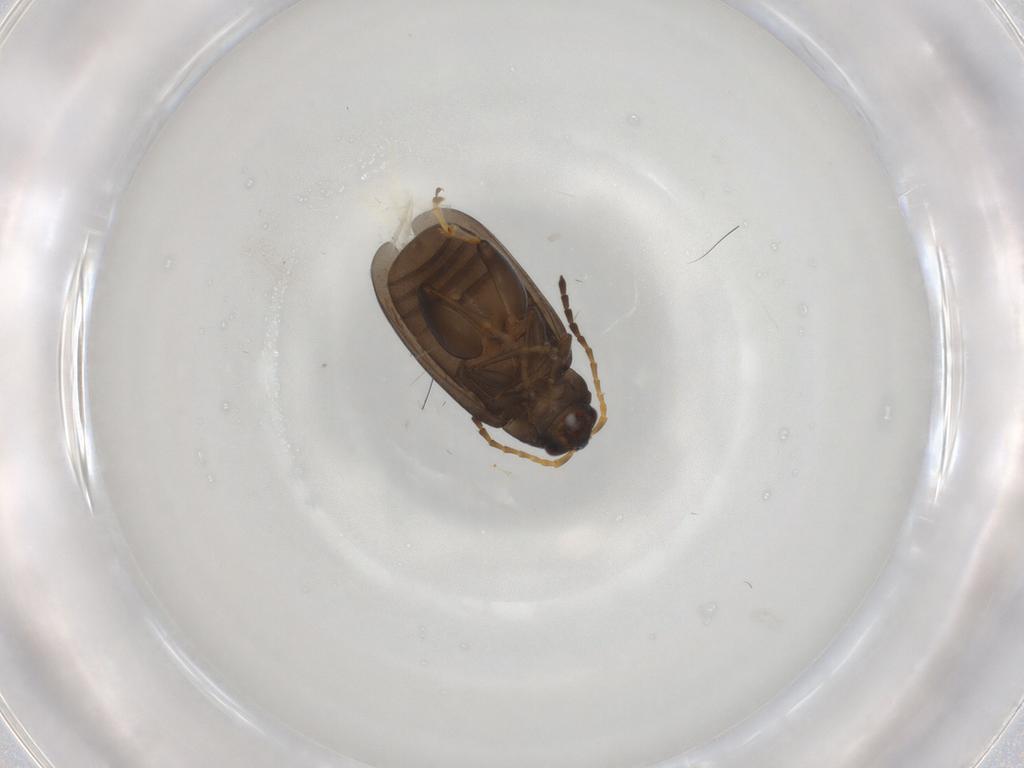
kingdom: Animalia
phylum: Arthropoda
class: Insecta
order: Coleoptera
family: Chrysomelidae
